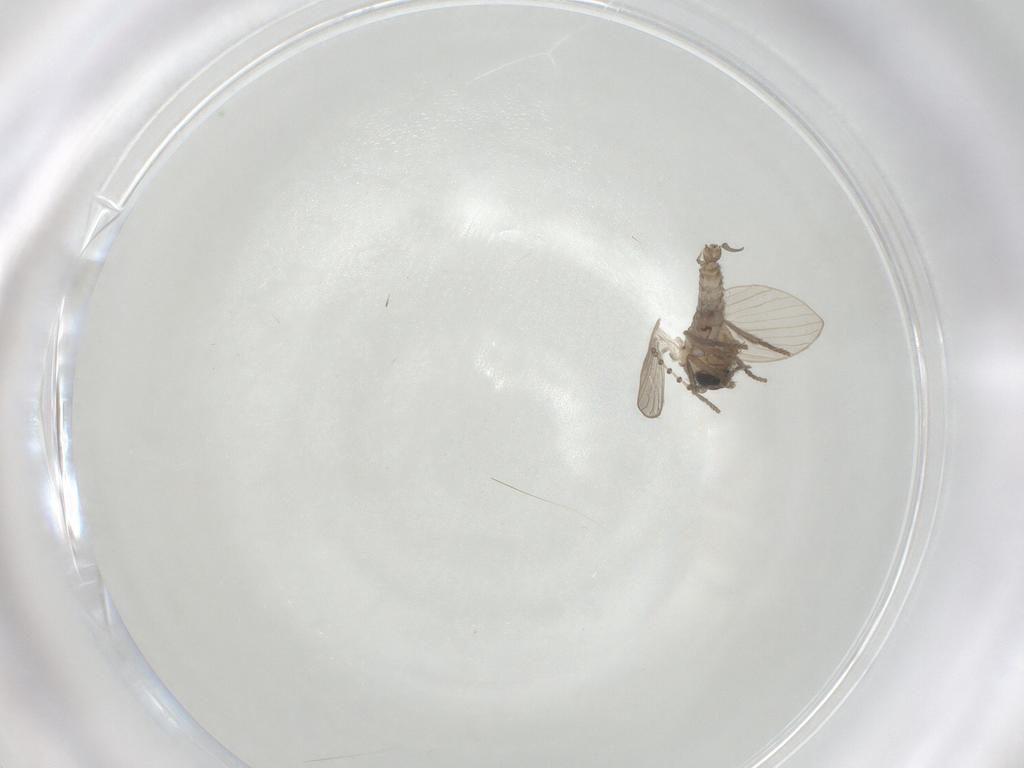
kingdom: Animalia
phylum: Arthropoda
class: Insecta
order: Diptera
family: Psychodidae
